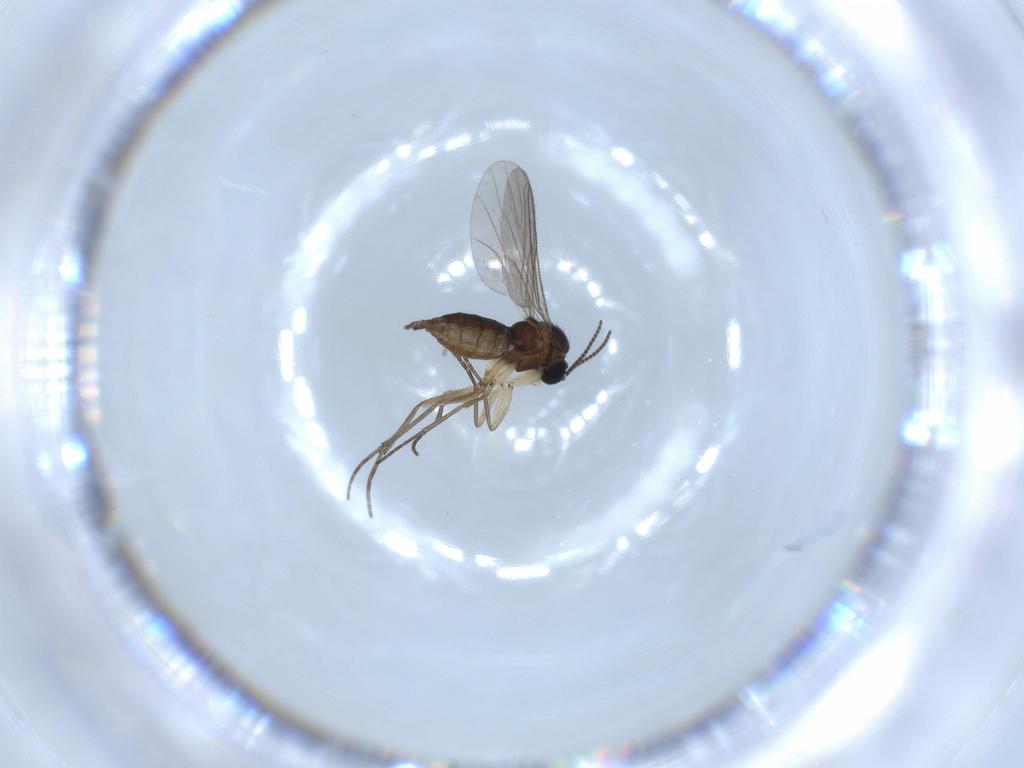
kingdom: Animalia
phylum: Arthropoda
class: Insecta
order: Diptera
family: Sciaridae
